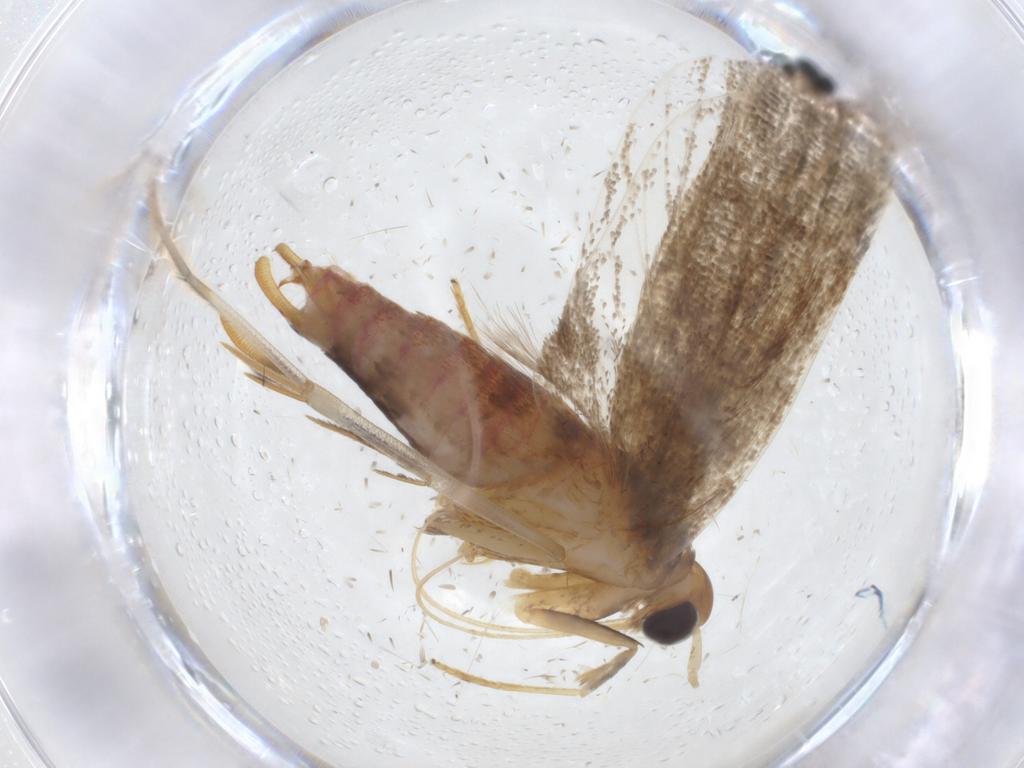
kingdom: Animalia
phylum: Arthropoda
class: Insecta
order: Lepidoptera
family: Lecithoceridae
